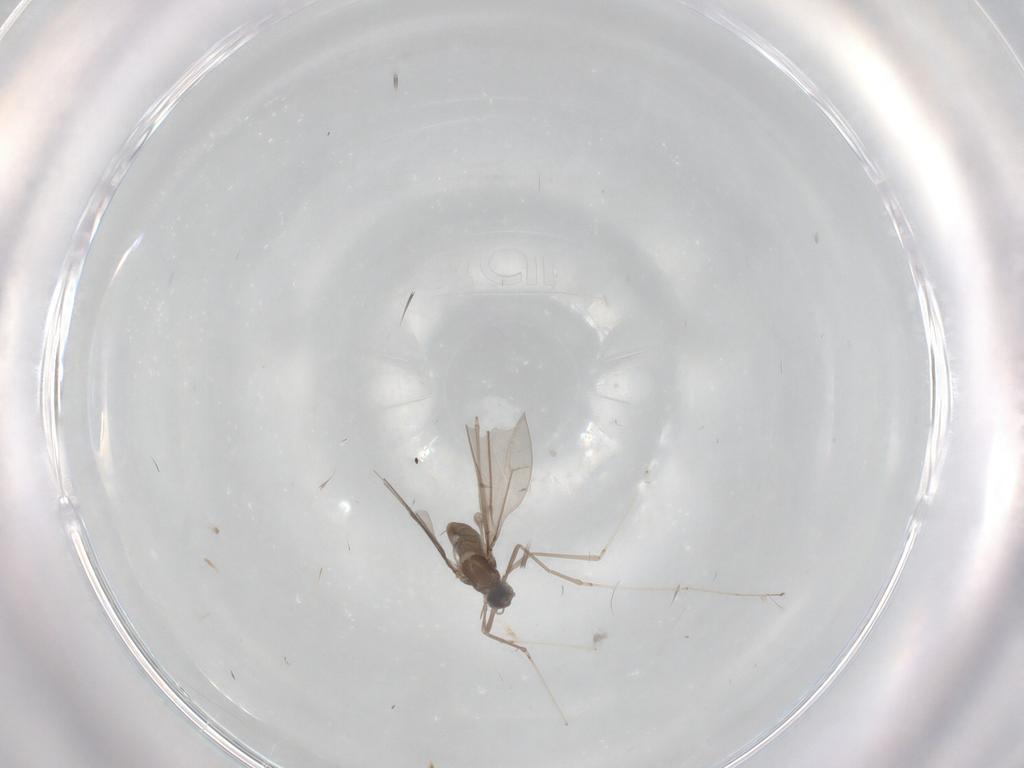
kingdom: Animalia
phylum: Arthropoda
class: Insecta
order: Diptera
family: Cecidomyiidae
